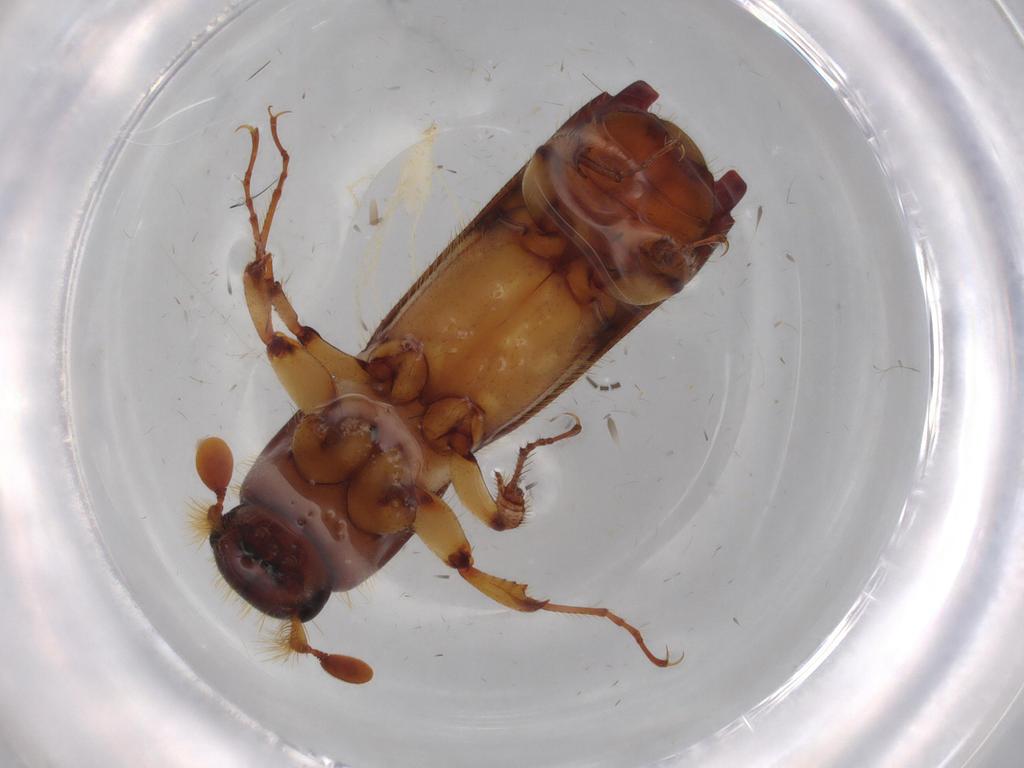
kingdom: Animalia
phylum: Arthropoda
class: Insecta
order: Coleoptera
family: Curculionidae
